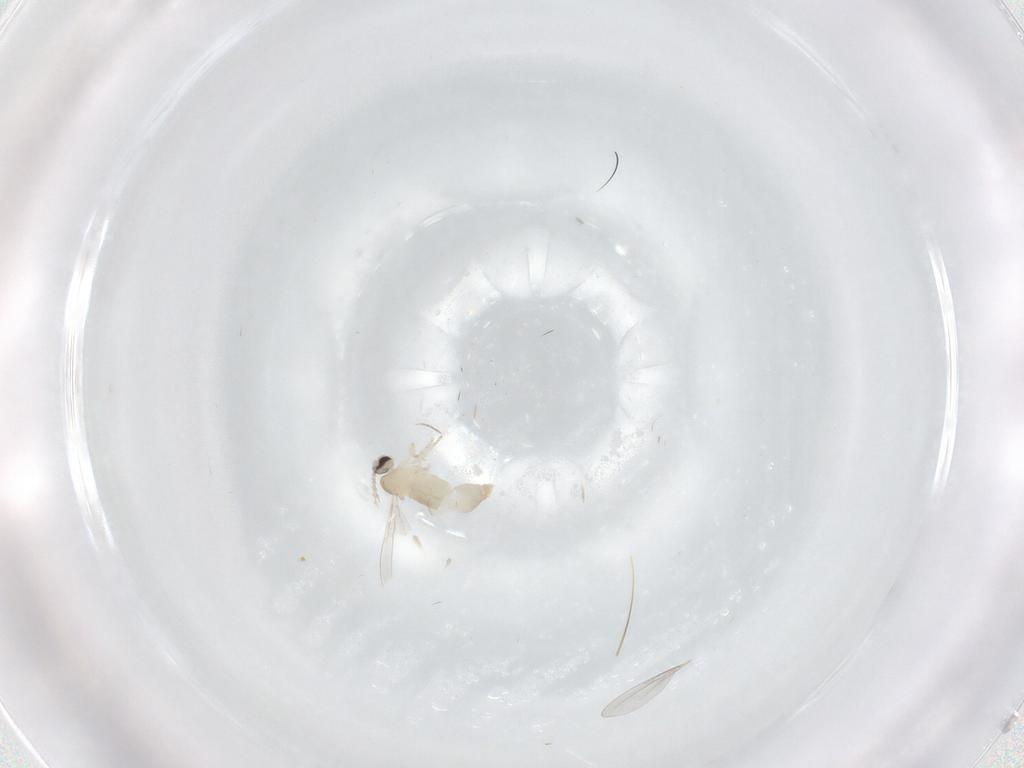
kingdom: Animalia
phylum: Arthropoda
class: Insecta
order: Diptera
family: Cecidomyiidae
